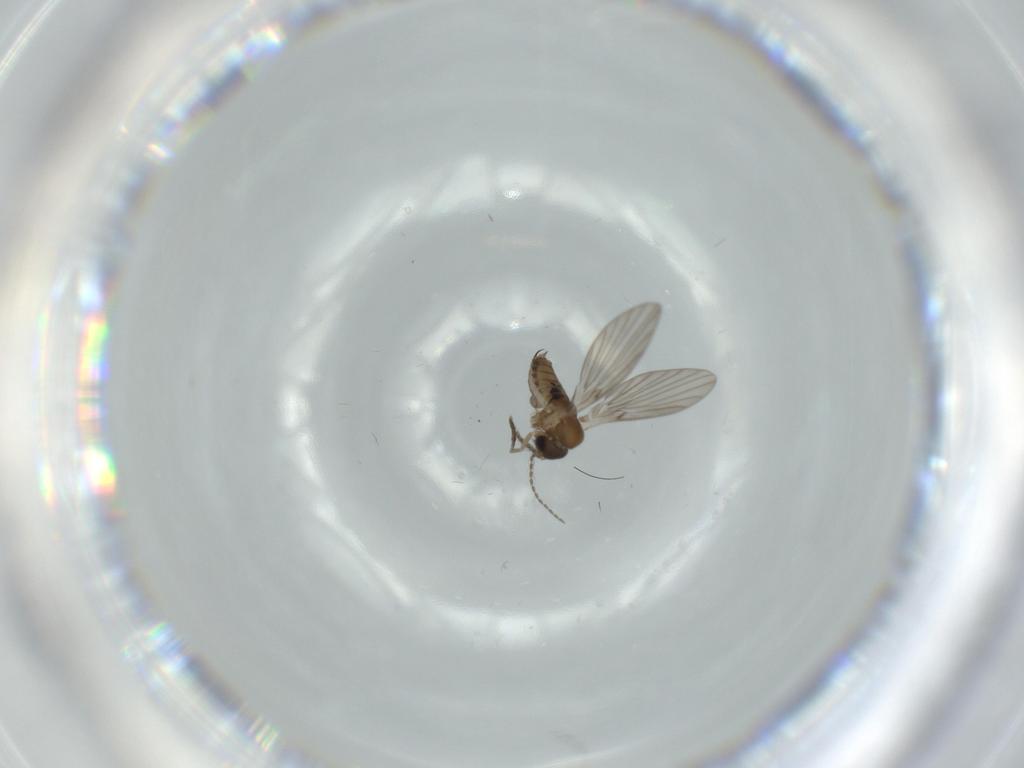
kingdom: Animalia
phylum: Arthropoda
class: Insecta
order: Diptera
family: Psychodidae
